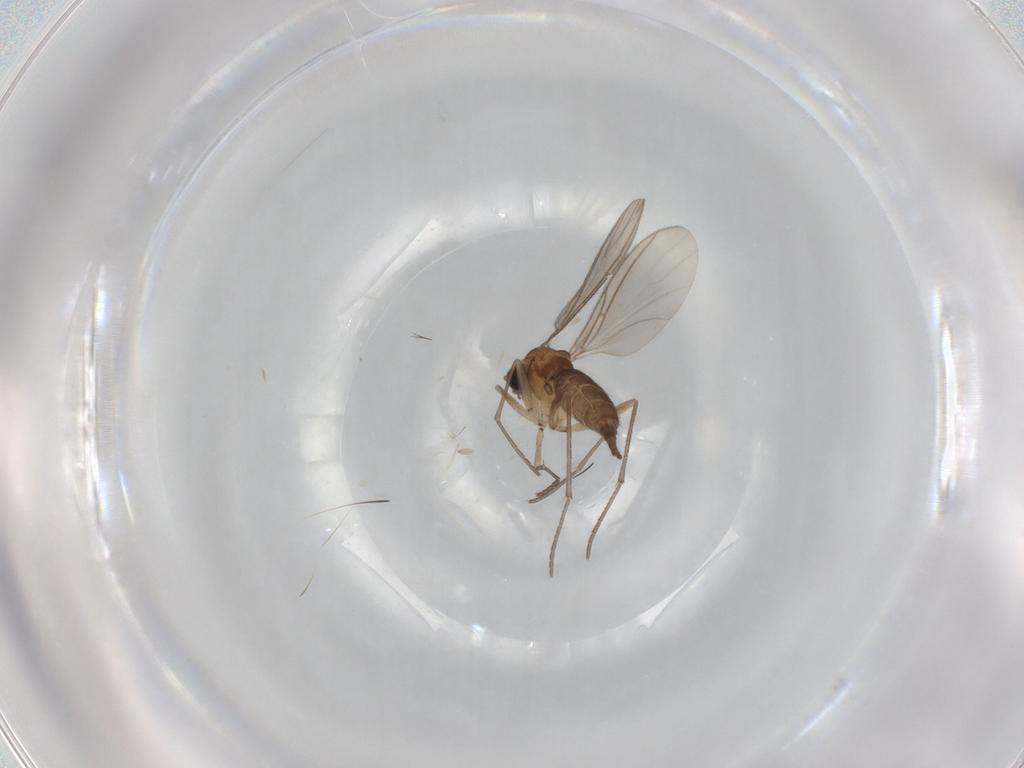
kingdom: Animalia
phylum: Arthropoda
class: Insecta
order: Diptera
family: Sciaridae
